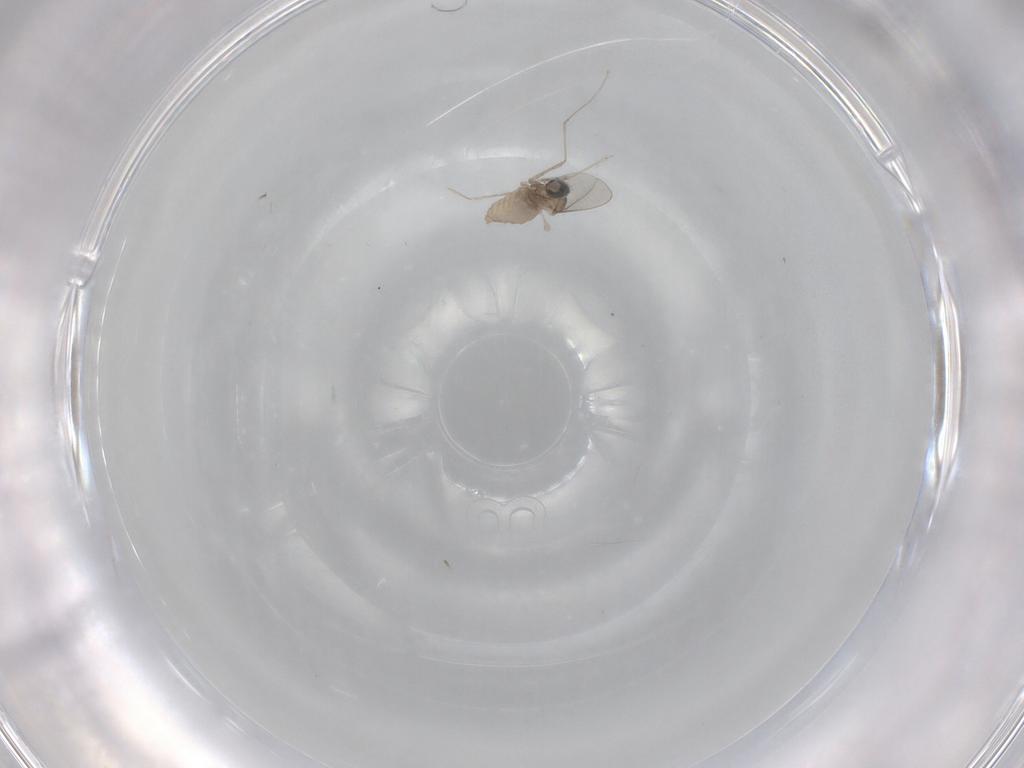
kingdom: Animalia
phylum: Arthropoda
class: Insecta
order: Diptera
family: Cecidomyiidae
